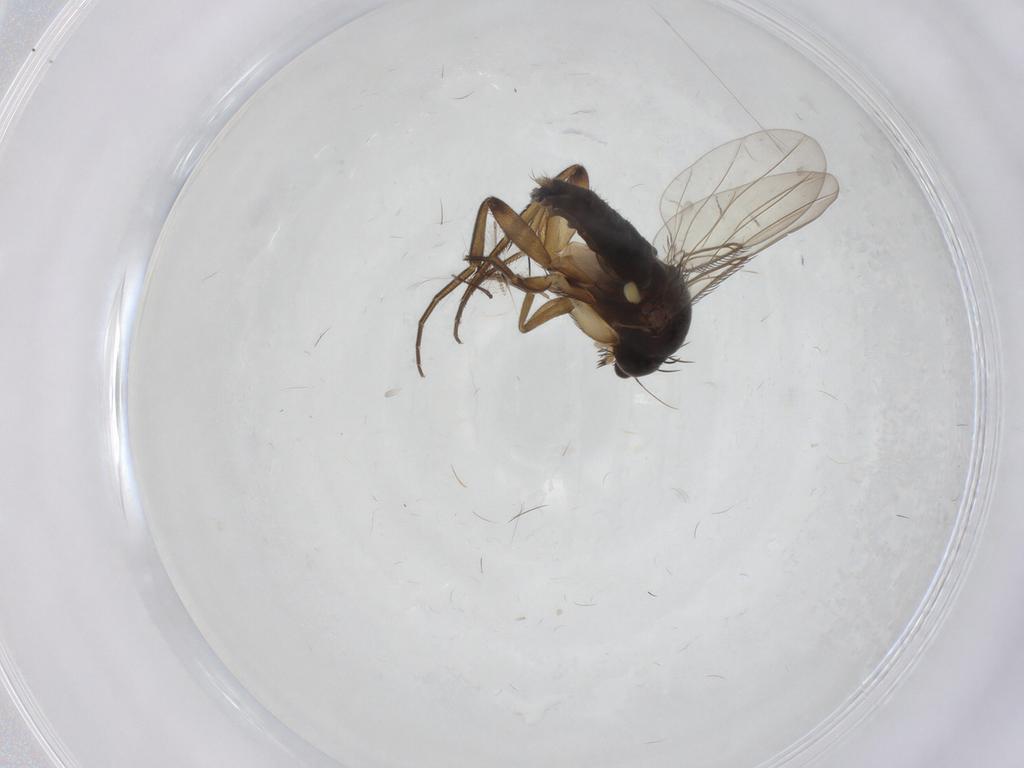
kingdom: Animalia
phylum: Arthropoda
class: Insecta
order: Diptera
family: Phoridae
